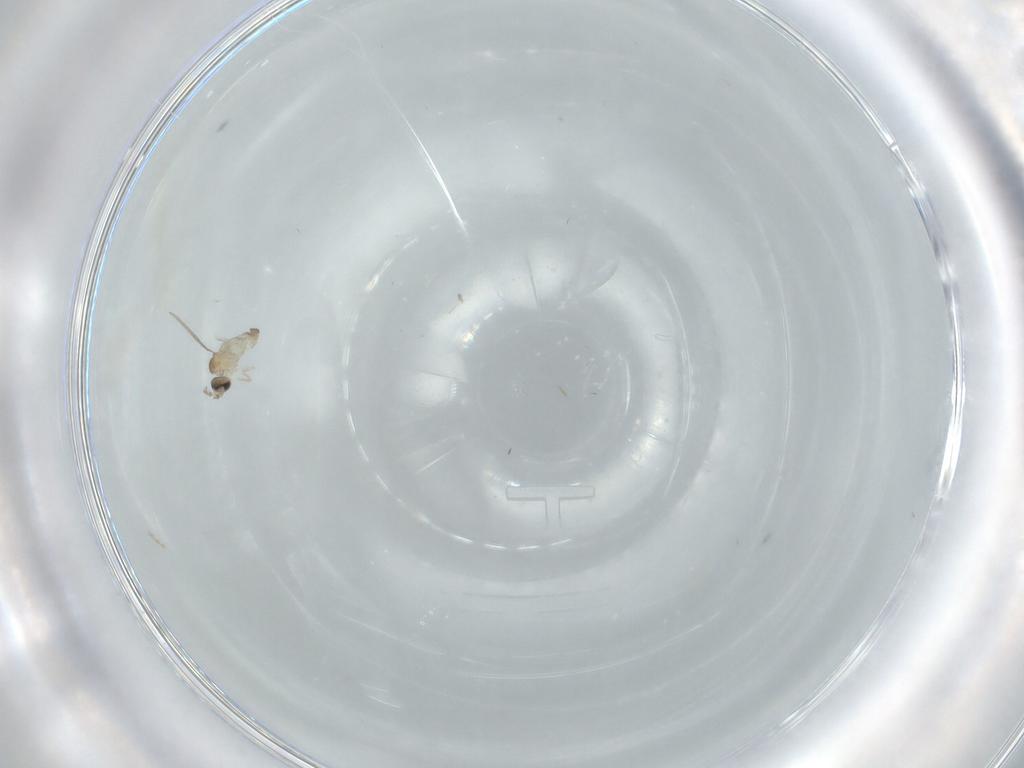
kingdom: Animalia
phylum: Arthropoda
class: Insecta
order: Diptera
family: Cecidomyiidae
